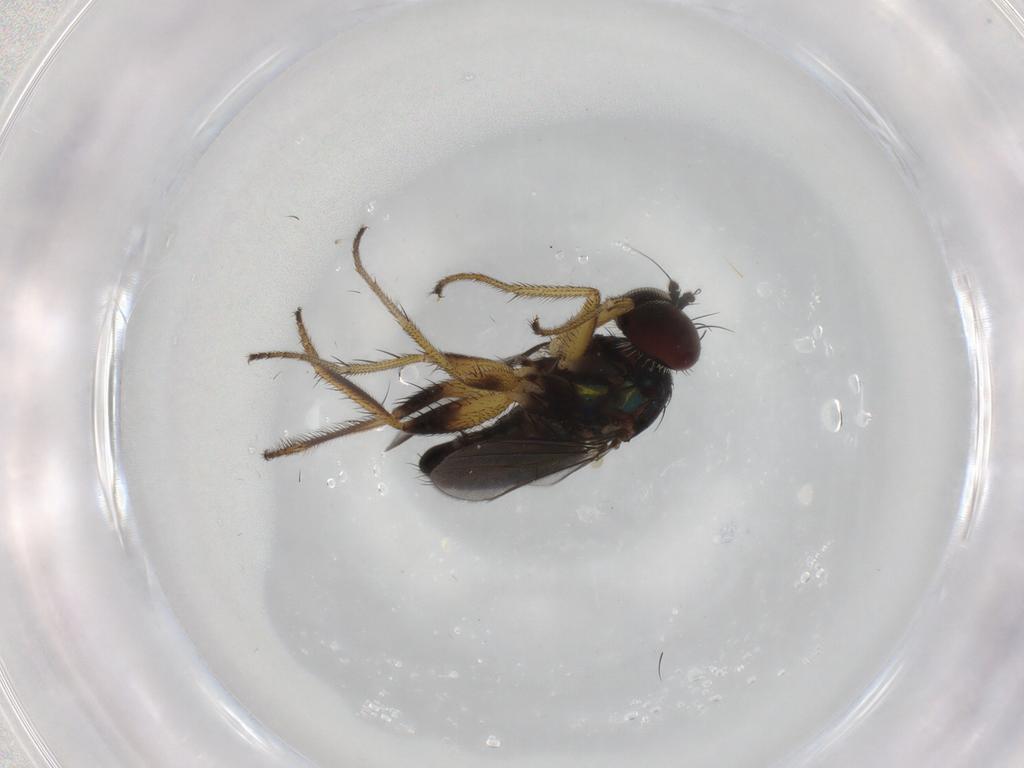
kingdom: Animalia
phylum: Arthropoda
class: Insecta
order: Diptera
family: Dolichopodidae
